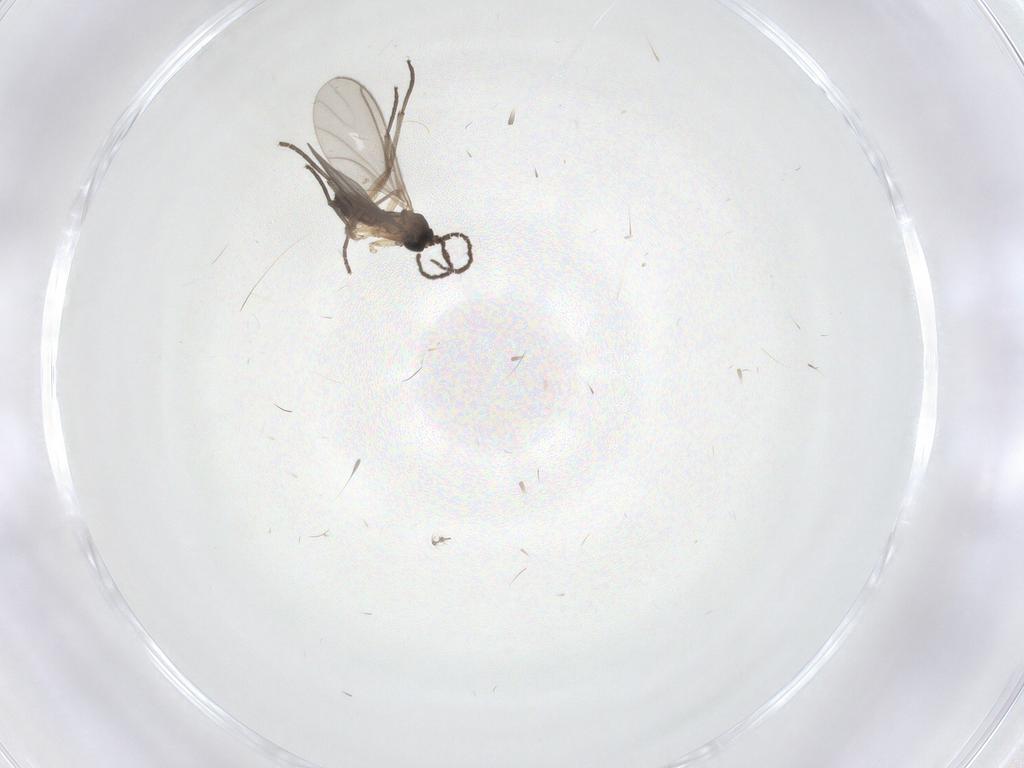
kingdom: Animalia
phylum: Arthropoda
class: Insecta
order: Diptera
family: Sciaridae
